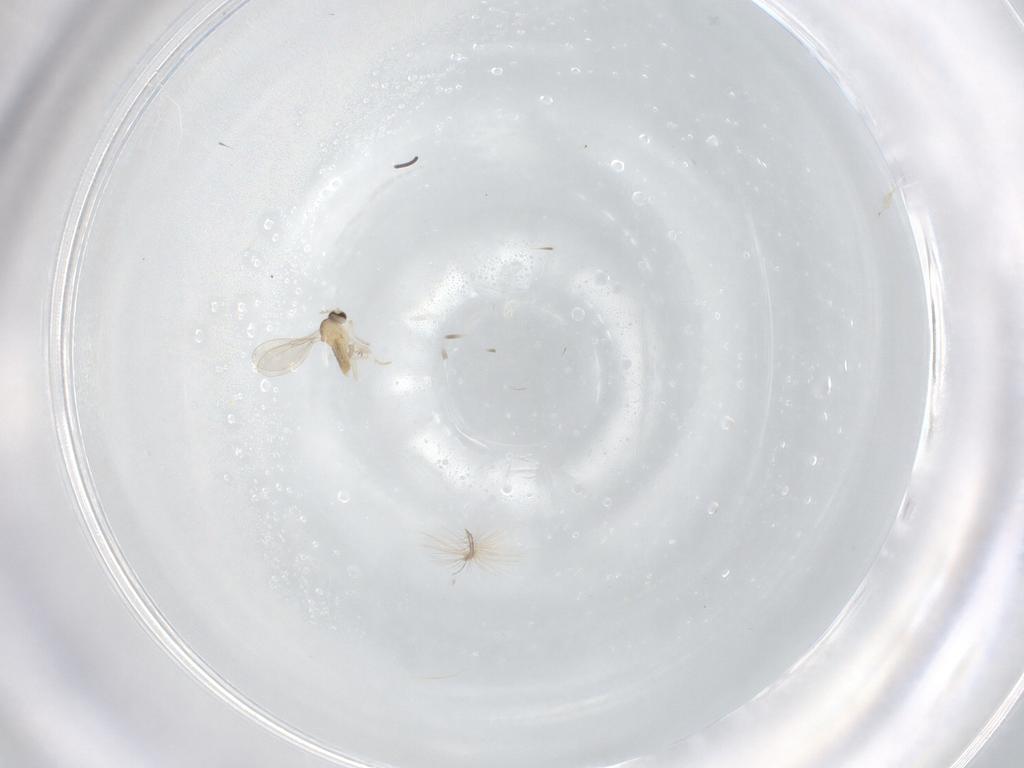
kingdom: Animalia
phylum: Arthropoda
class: Insecta
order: Diptera
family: Cecidomyiidae
